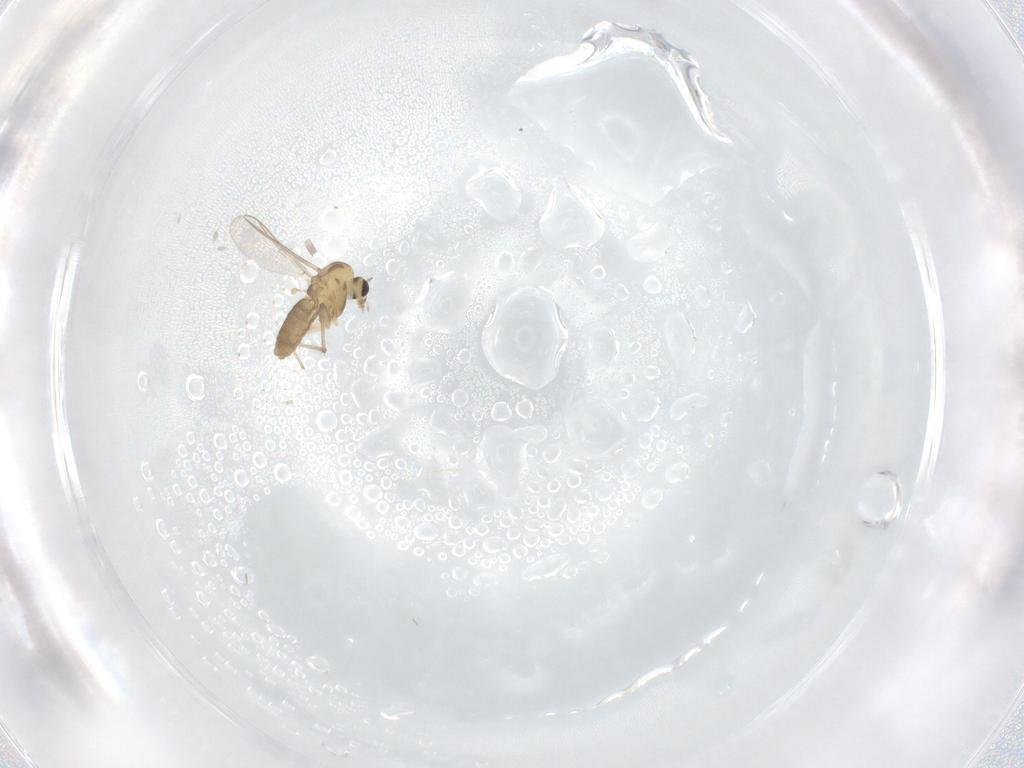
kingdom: Animalia
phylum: Arthropoda
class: Insecta
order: Diptera
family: Chironomidae
